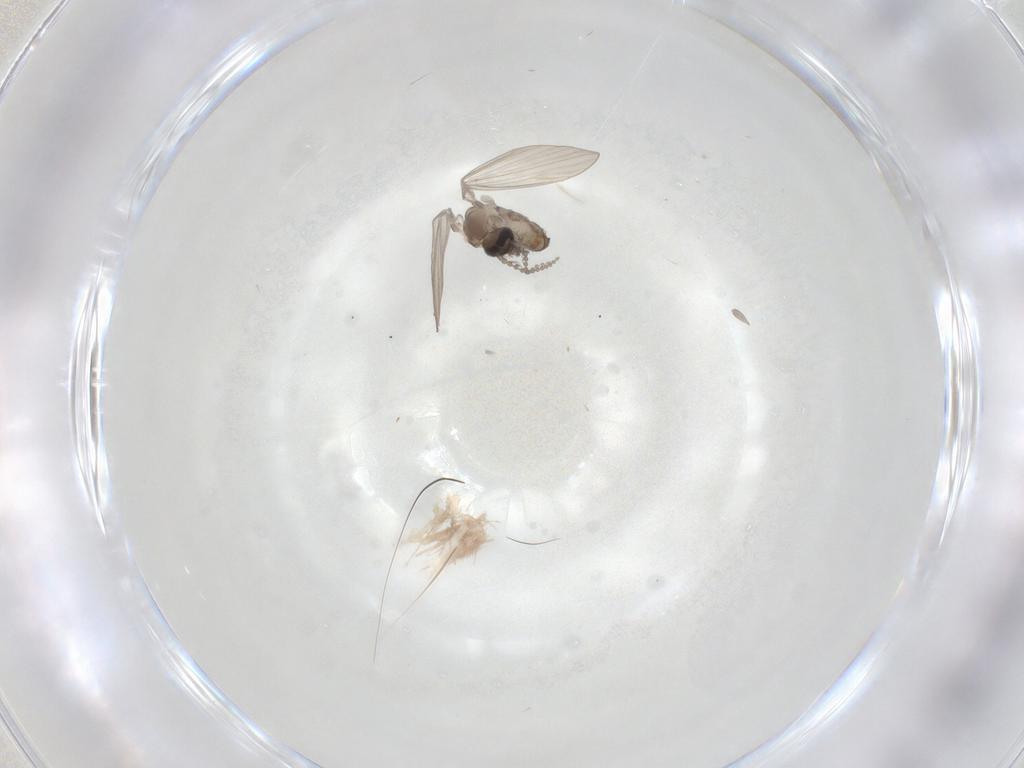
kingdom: Animalia
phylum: Arthropoda
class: Insecta
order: Diptera
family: Psychodidae
